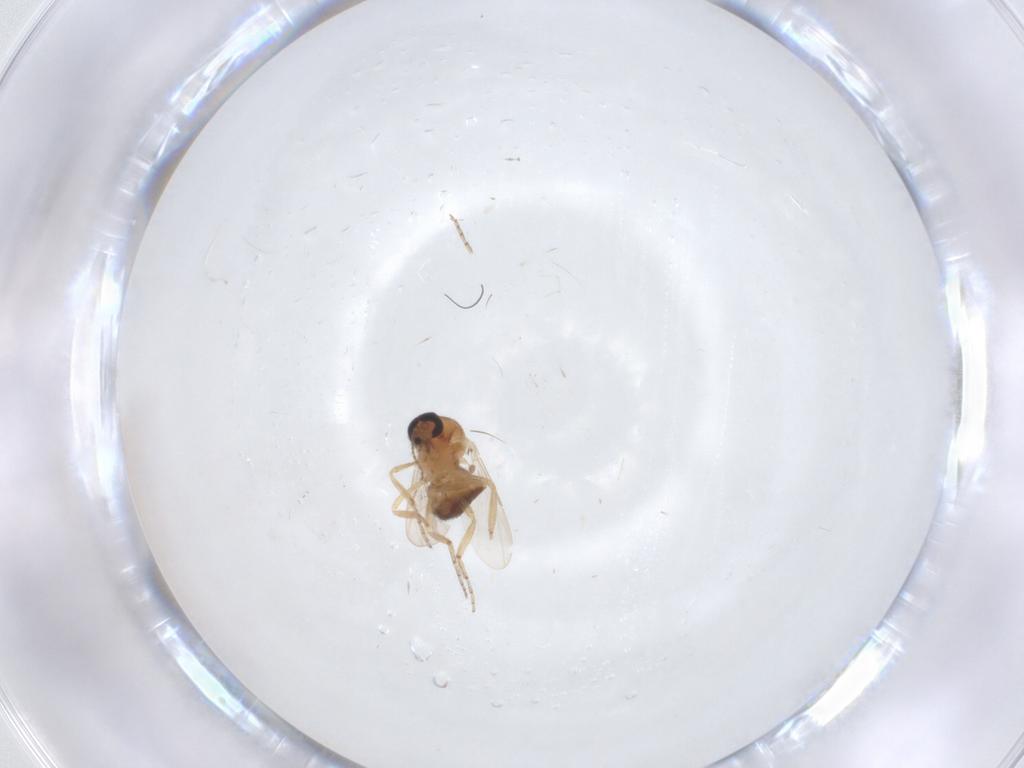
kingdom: Animalia
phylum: Arthropoda
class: Insecta
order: Diptera
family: Ceratopogonidae
